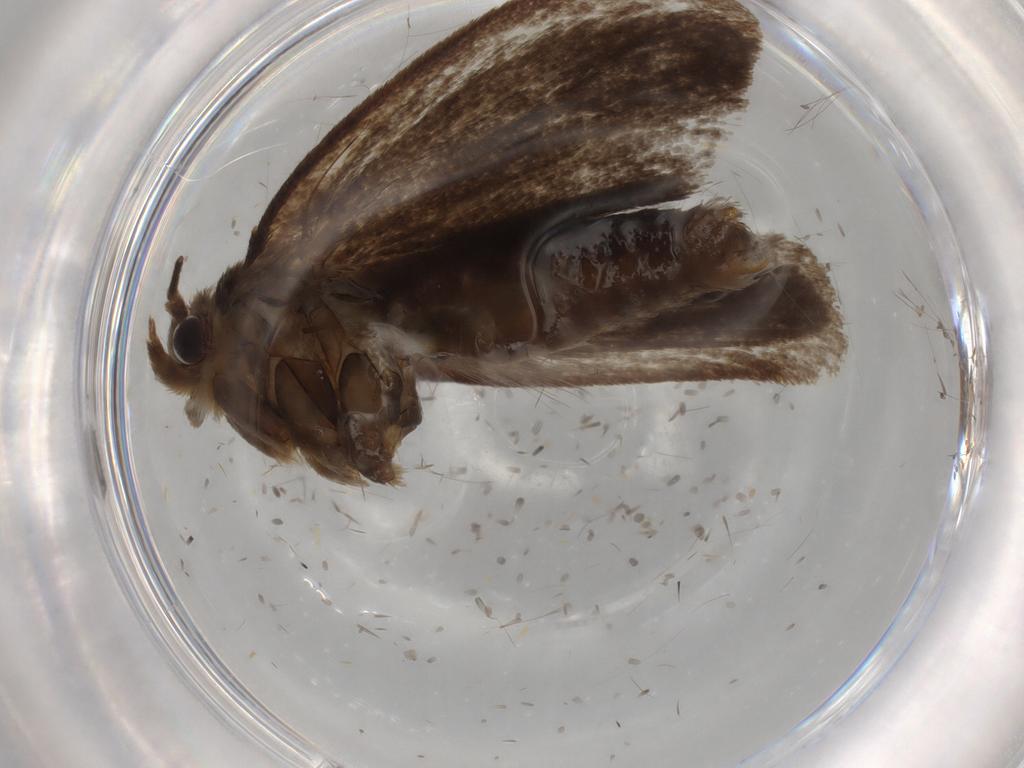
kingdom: Animalia
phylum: Arthropoda
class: Insecta
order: Lepidoptera
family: Tineidae
